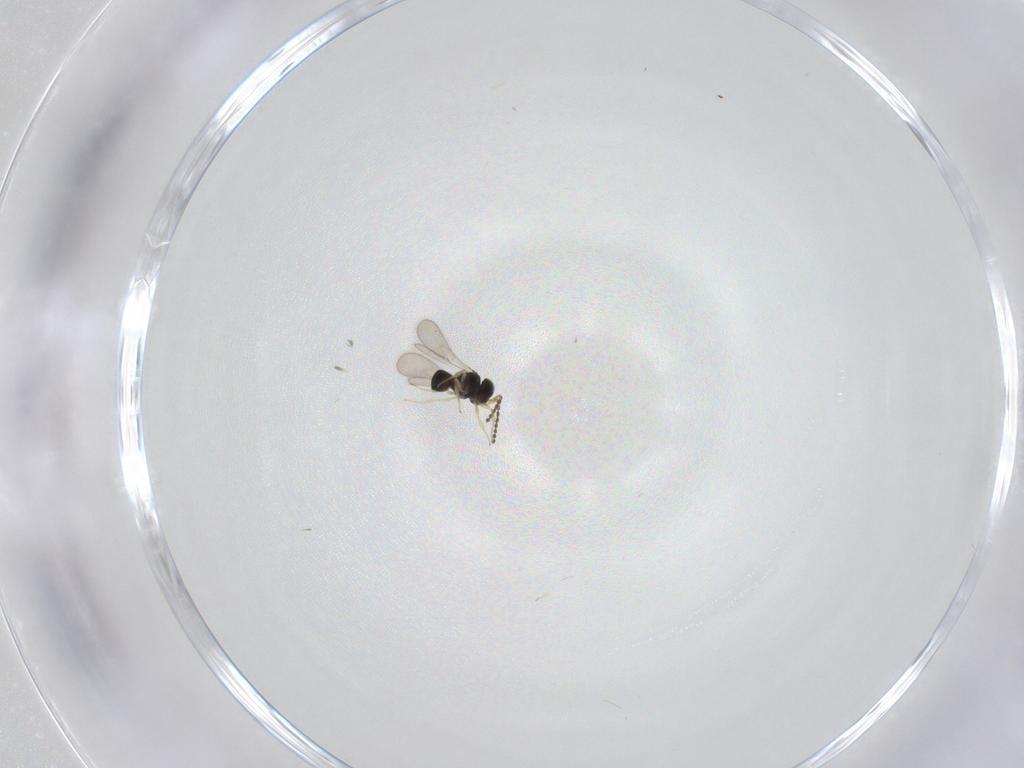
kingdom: Animalia
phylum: Arthropoda
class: Insecta
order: Hymenoptera
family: Scelionidae
